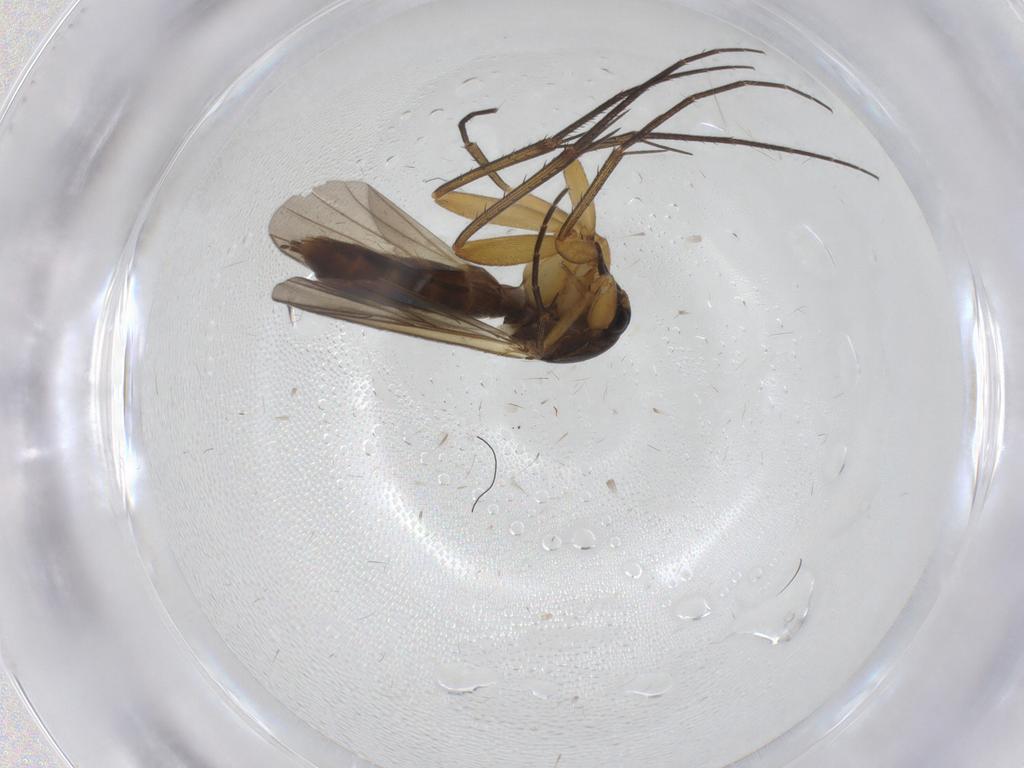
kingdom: Animalia
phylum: Arthropoda
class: Insecta
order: Diptera
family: Mycetophilidae
